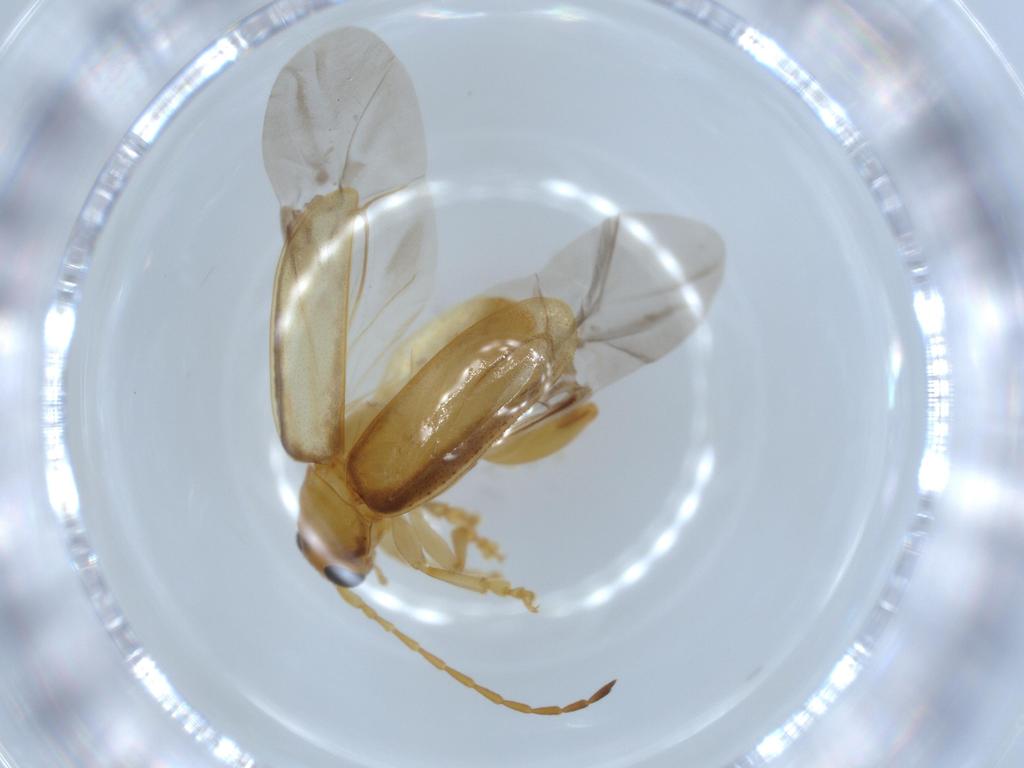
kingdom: Animalia
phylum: Arthropoda
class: Insecta
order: Coleoptera
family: Chrysomelidae
